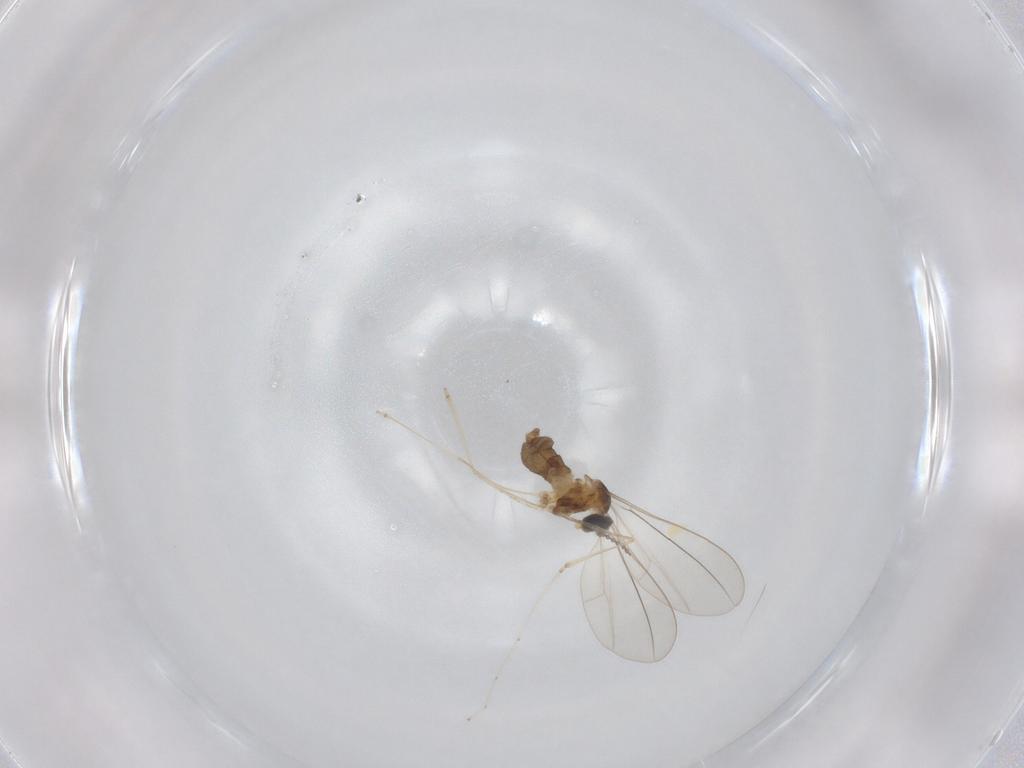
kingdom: Animalia
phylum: Arthropoda
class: Insecta
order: Diptera
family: Cecidomyiidae
